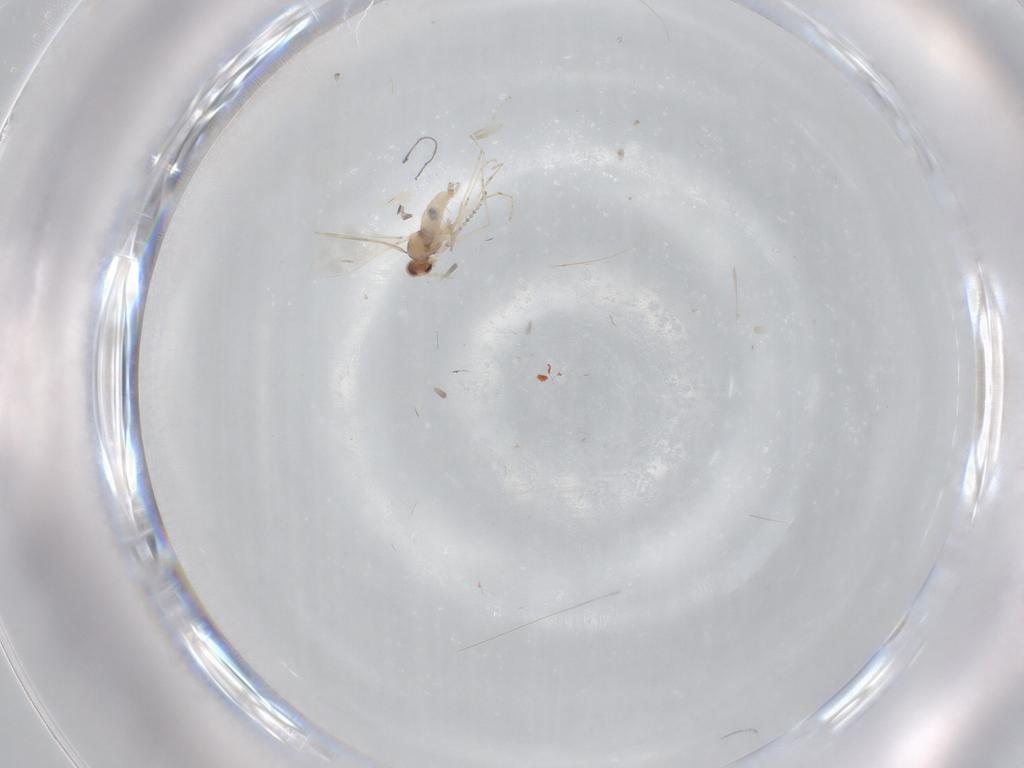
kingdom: Animalia
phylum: Arthropoda
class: Insecta
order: Diptera
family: Cecidomyiidae
